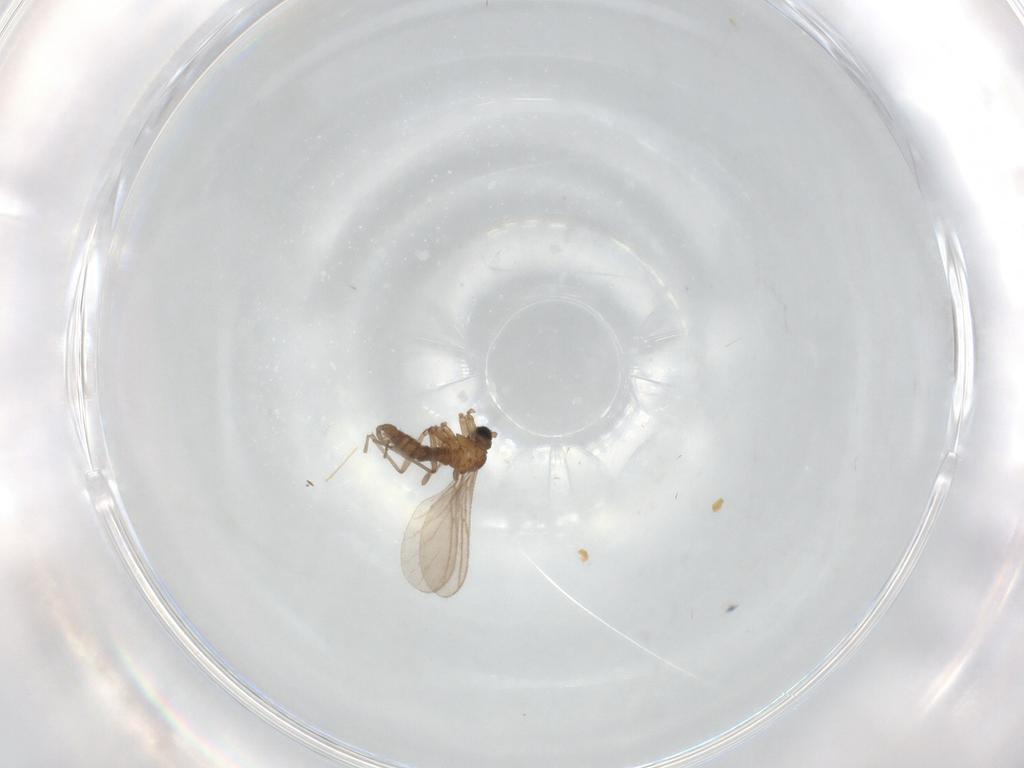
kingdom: Animalia
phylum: Arthropoda
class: Insecta
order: Diptera
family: Sciaridae
